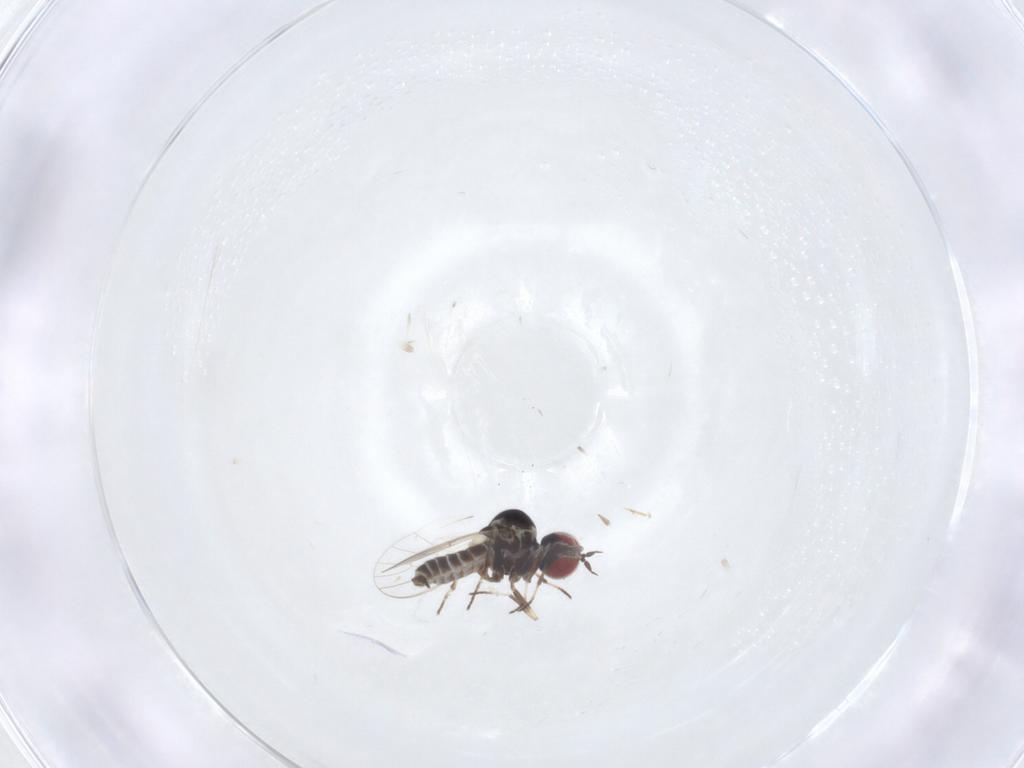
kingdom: Animalia
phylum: Arthropoda
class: Insecta
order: Diptera
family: Mythicomyiidae
